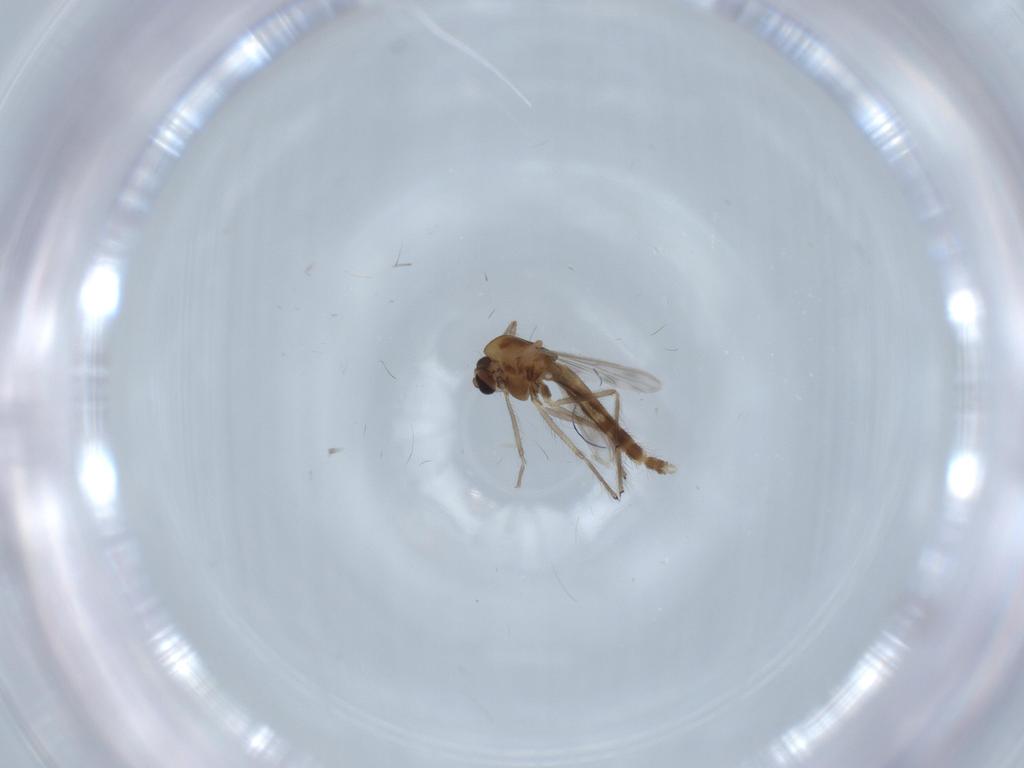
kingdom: Animalia
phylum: Arthropoda
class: Insecta
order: Diptera
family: Chironomidae
